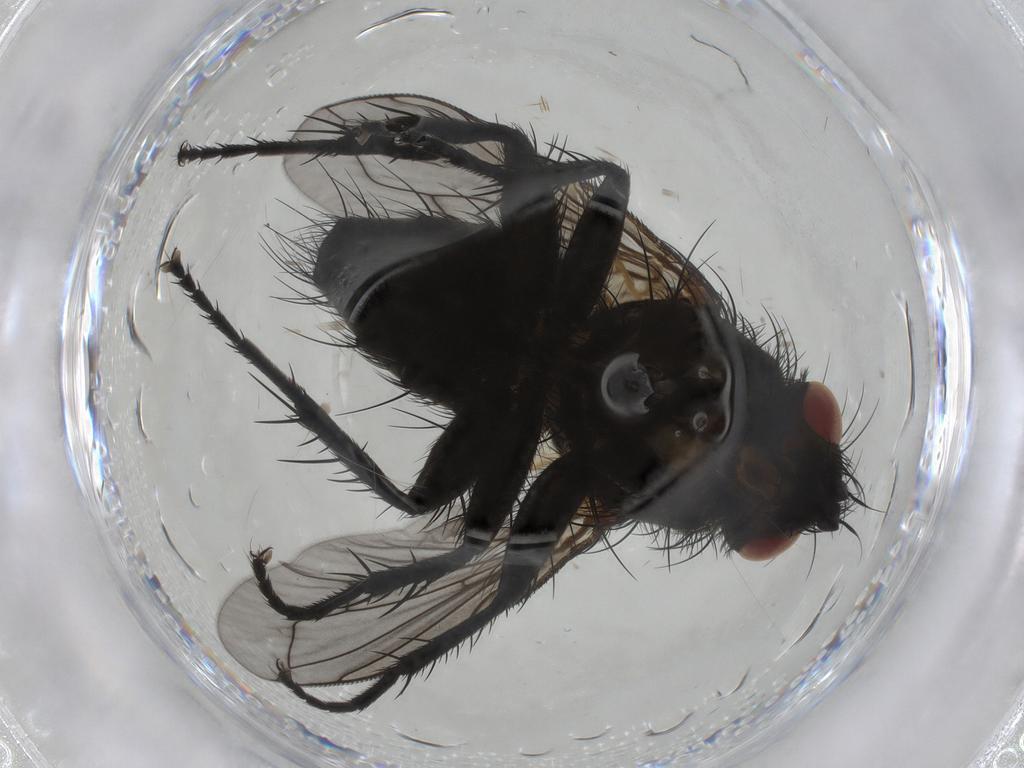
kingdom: Animalia
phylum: Arthropoda
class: Insecta
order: Diptera
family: Tachinidae
